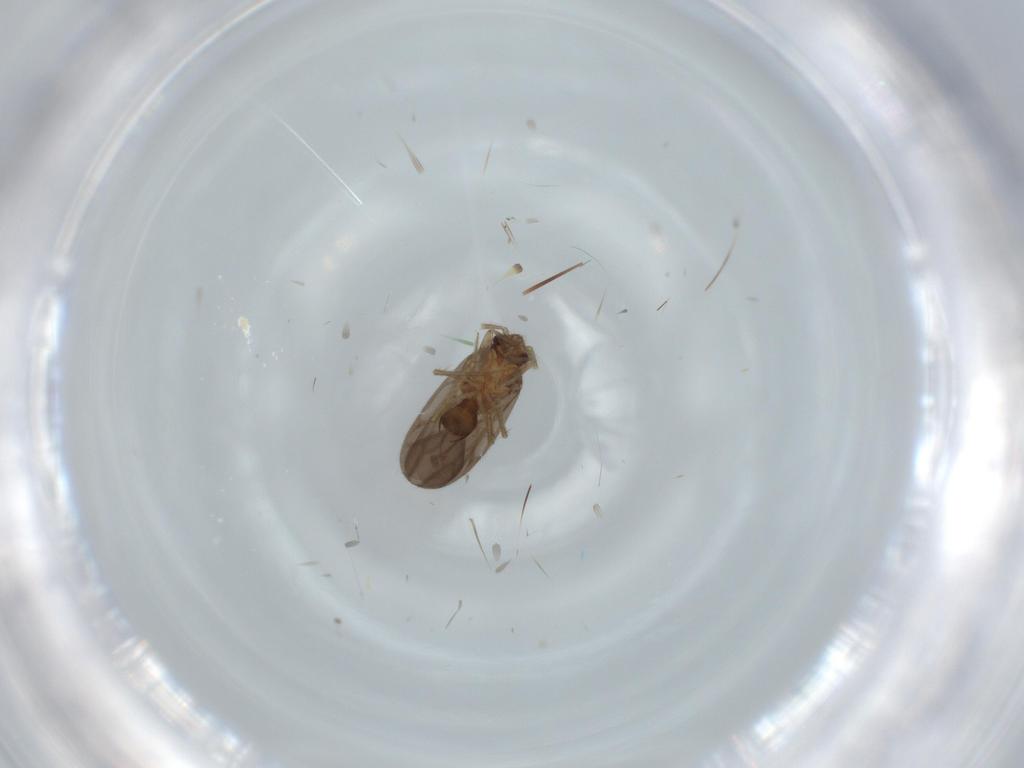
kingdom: Animalia
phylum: Arthropoda
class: Insecta
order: Hemiptera
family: Ceratocombidae
